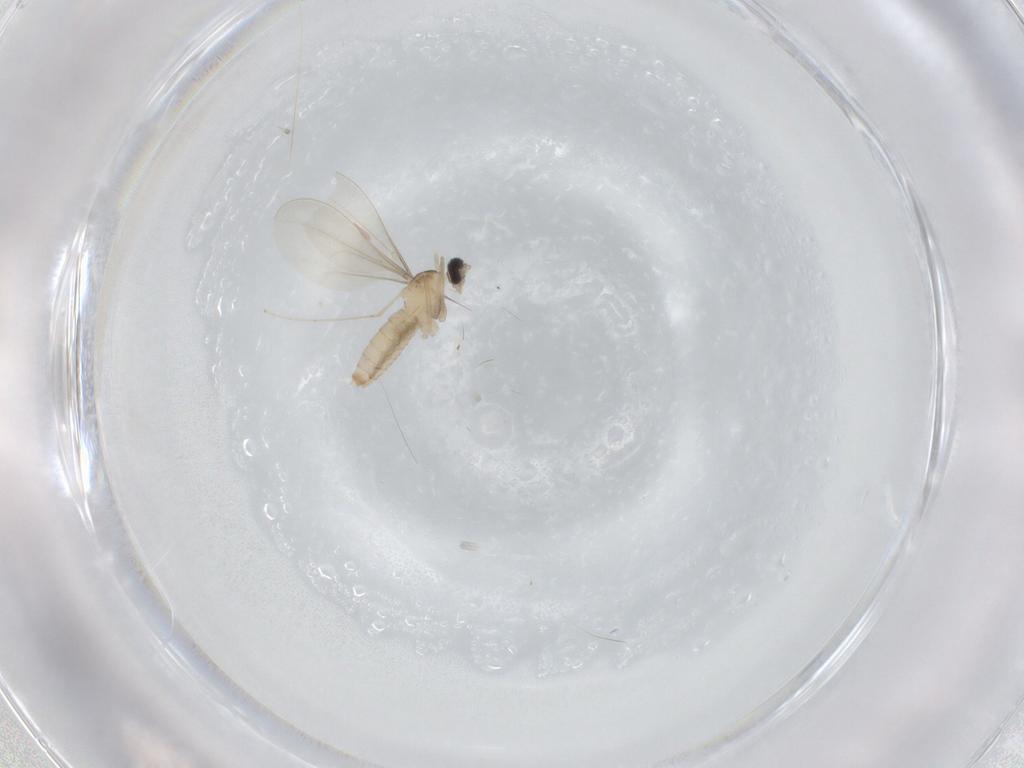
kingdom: Animalia
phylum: Arthropoda
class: Insecta
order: Diptera
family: Cecidomyiidae
